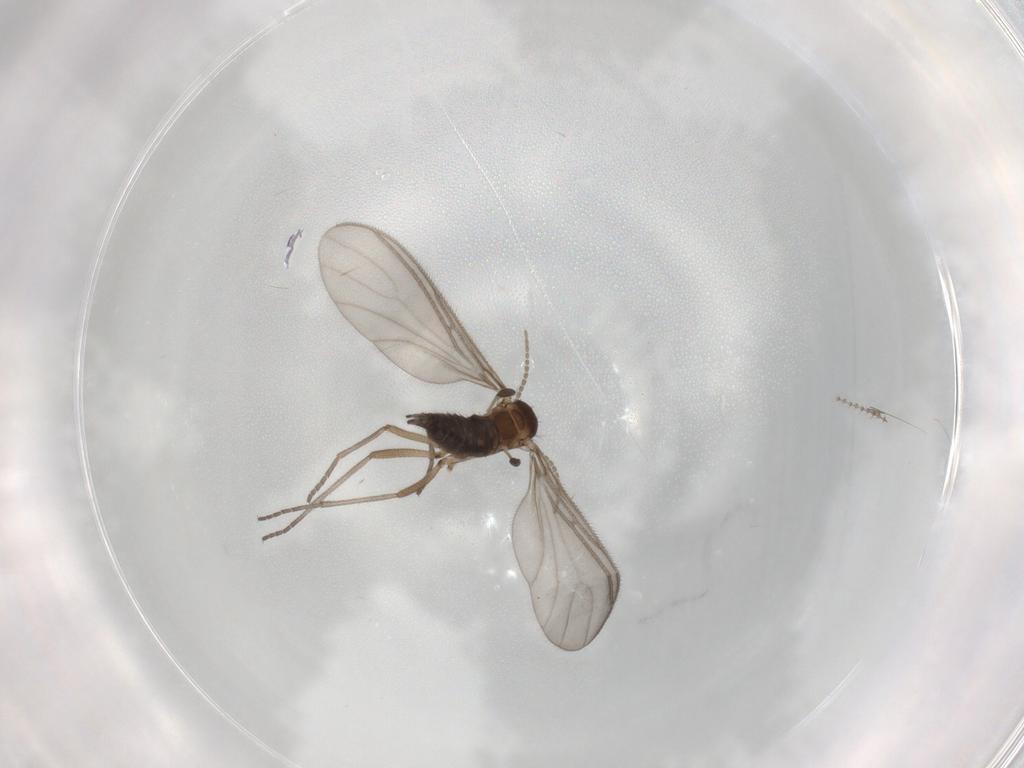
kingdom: Animalia
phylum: Arthropoda
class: Insecta
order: Diptera
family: Sciaridae
